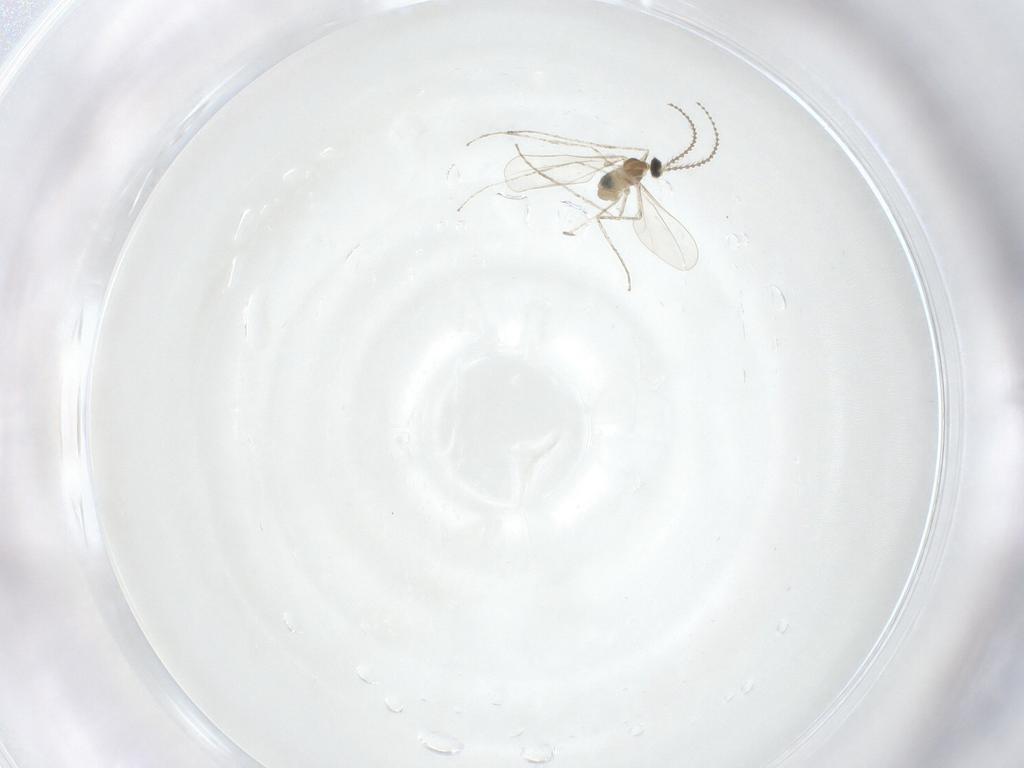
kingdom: Animalia
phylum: Arthropoda
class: Insecta
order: Diptera
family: Cecidomyiidae
